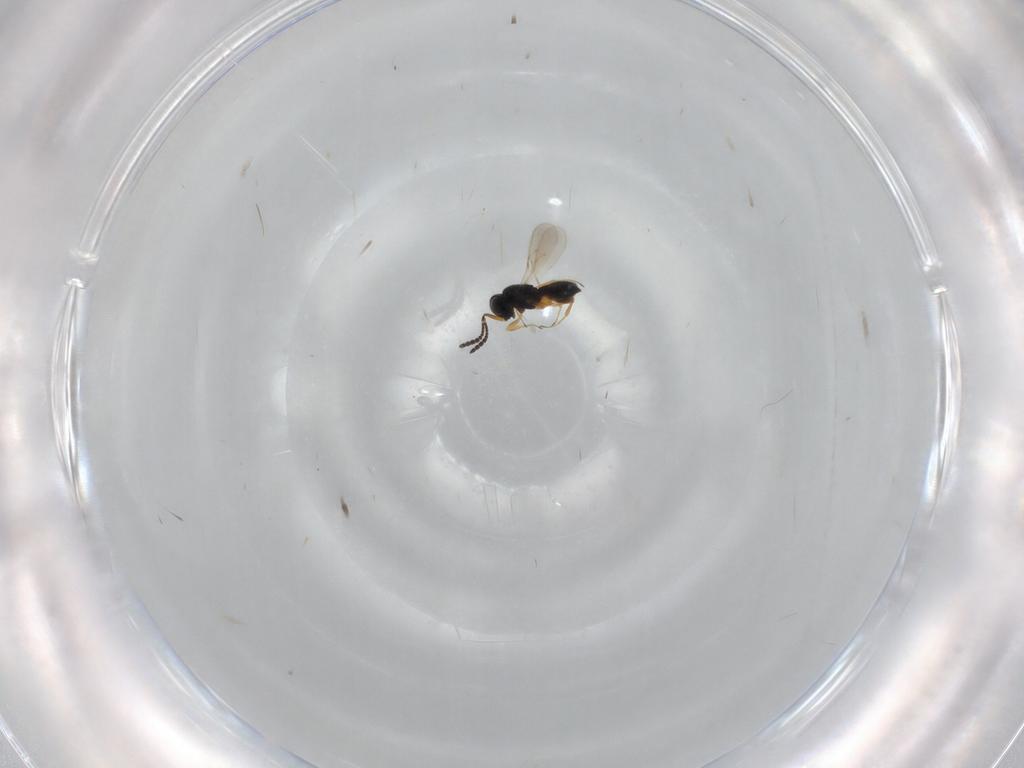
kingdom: Animalia
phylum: Arthropoda
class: Insecta
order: Hymenoptera
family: Scelionidae
